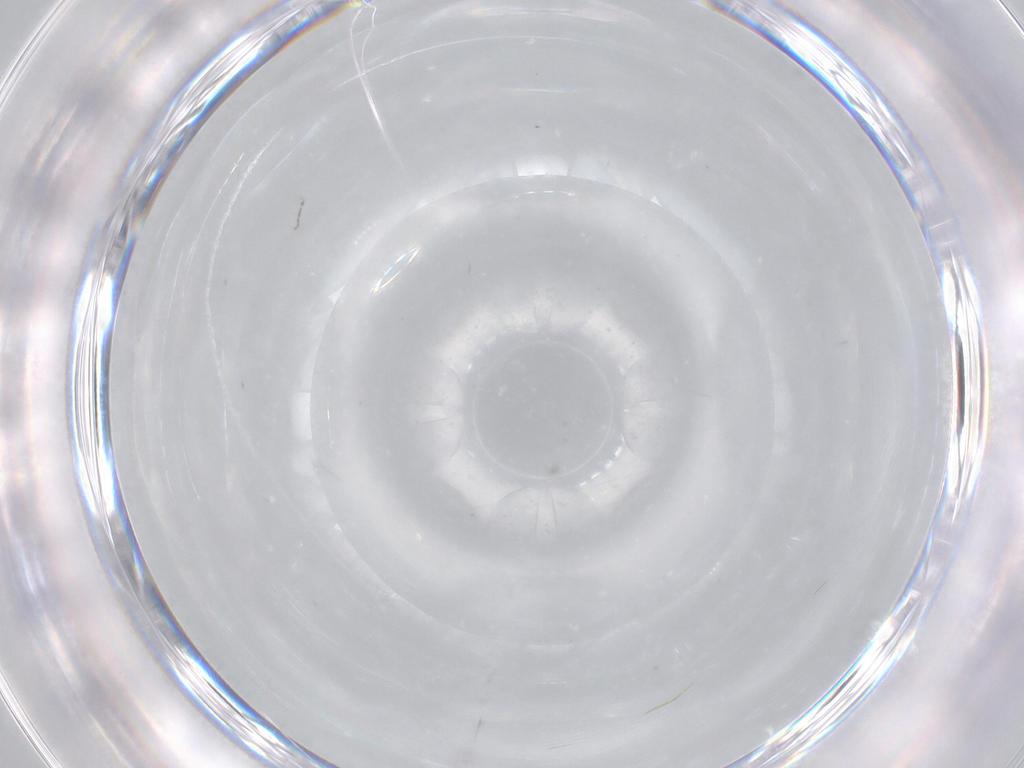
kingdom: Animalia
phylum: Arthropoda
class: Insecta
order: Diptera
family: Cecidomyiidae
